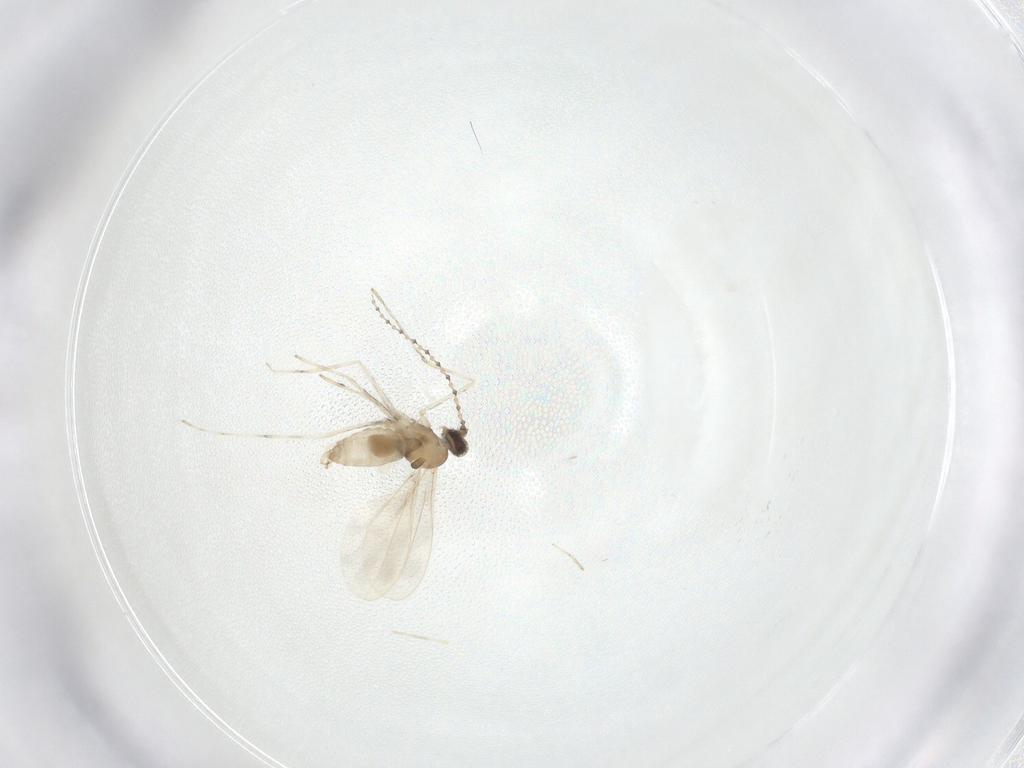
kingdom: Animalia
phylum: Arthropoda
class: Insecta
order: Diptera
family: Cecidomyiidae
